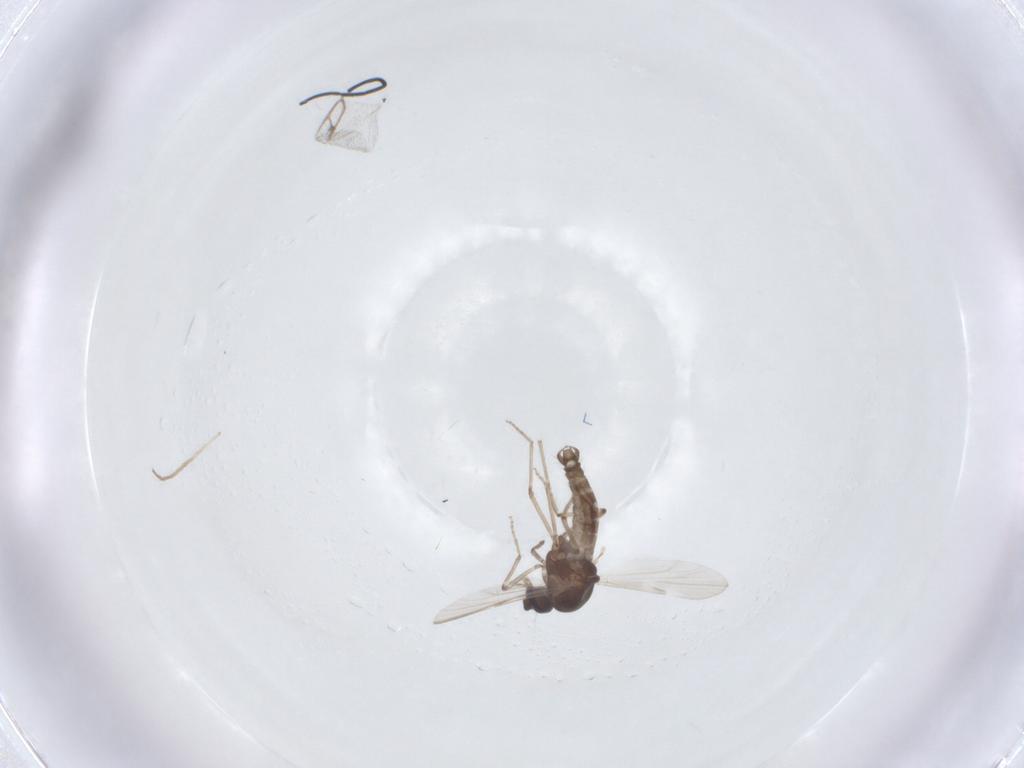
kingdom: Animalia
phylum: Arthropoda
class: Insecta
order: Diptera
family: Ceratopogonidae
